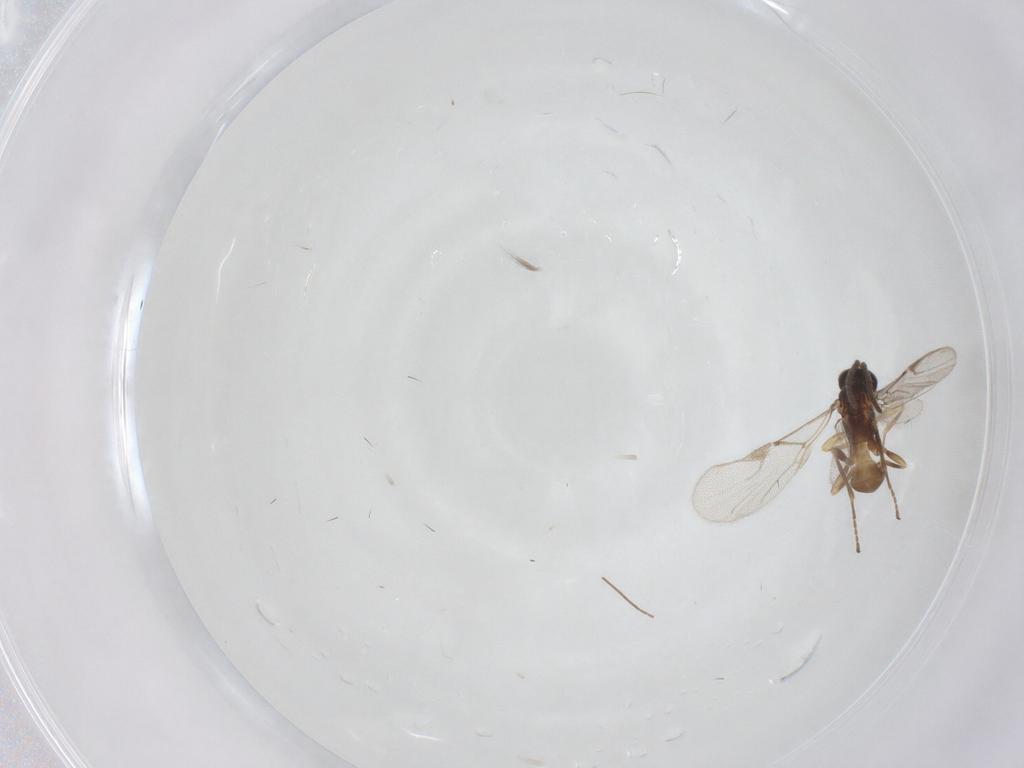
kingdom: Animalia
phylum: Arthropoda
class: Insecta
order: Hymenoptera
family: Braconidae
